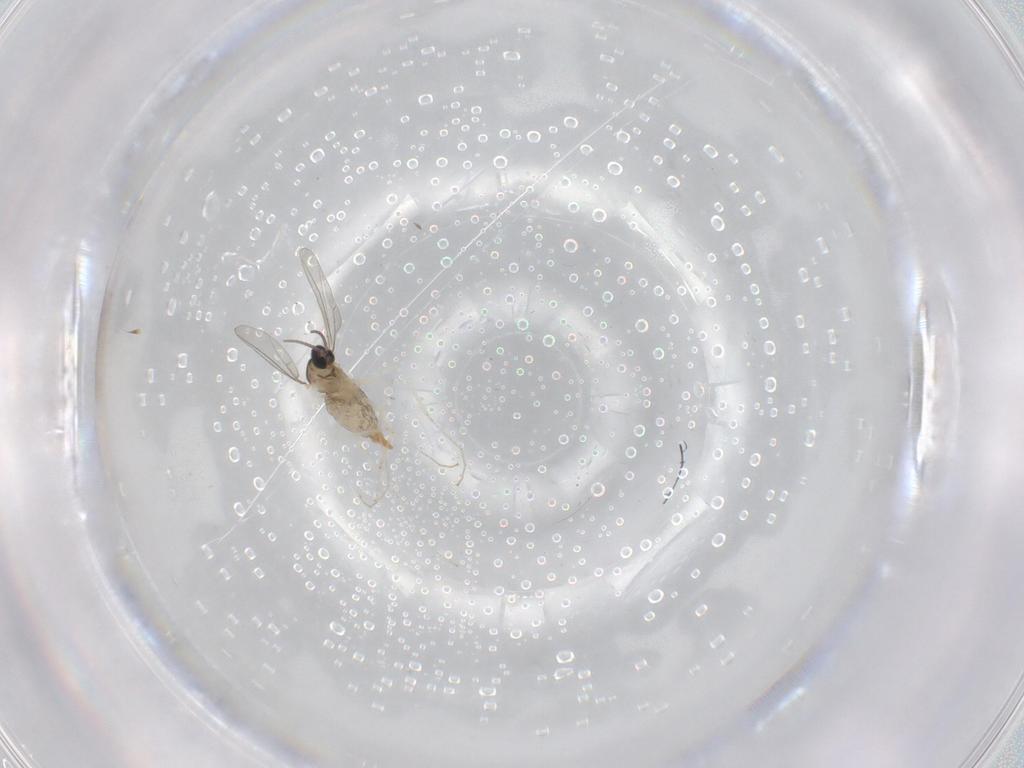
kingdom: Animalia
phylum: Arthropoda
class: Insecta
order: Diptera
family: Cecidomyiidae
